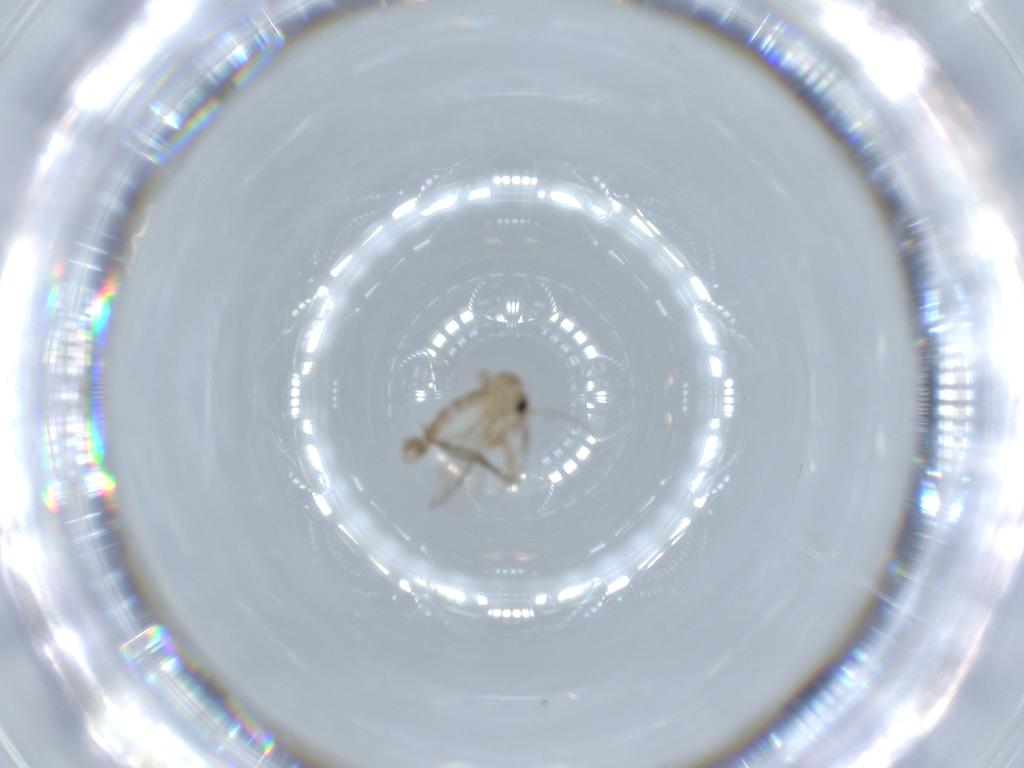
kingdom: Animalia
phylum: Arthropoda
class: Insecta
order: Diptera
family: Psychodidae
